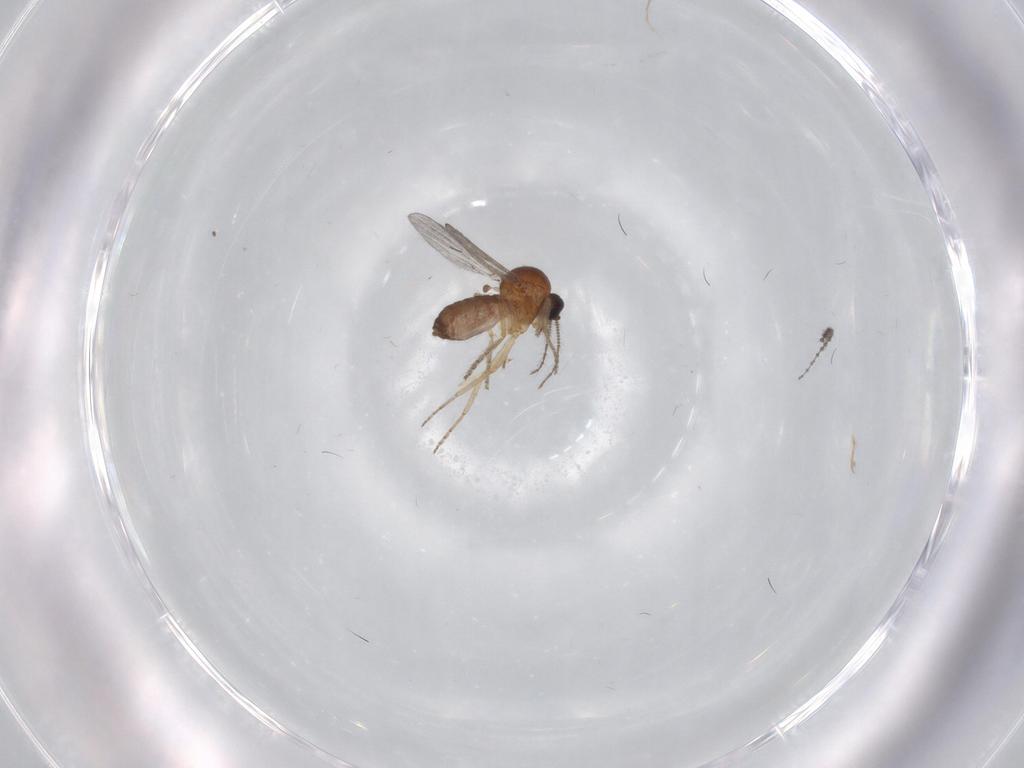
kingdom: Animalia
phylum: Arthropoda
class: Insecta
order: Diptera
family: Ceratopogonidae
